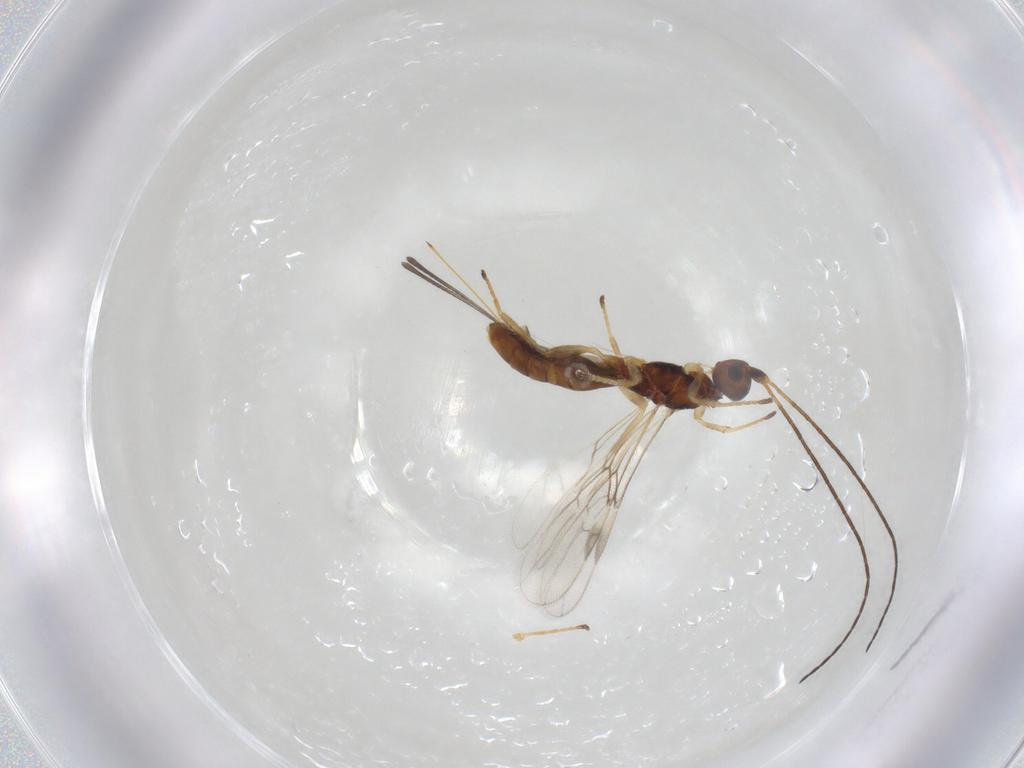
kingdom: Animalia
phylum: Arthropoda
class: Insecta
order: Hymenoptera
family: Braconidae
